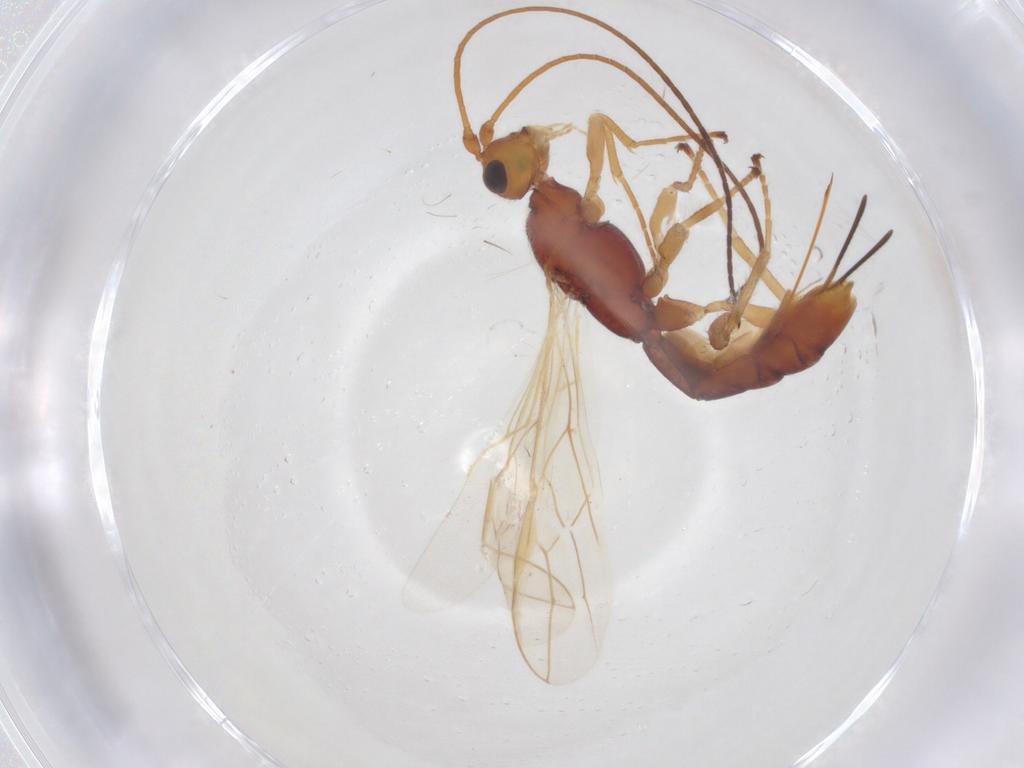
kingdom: Animalia
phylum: Arthropoda
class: Insecta
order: Hymenoptera
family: Braconidae
